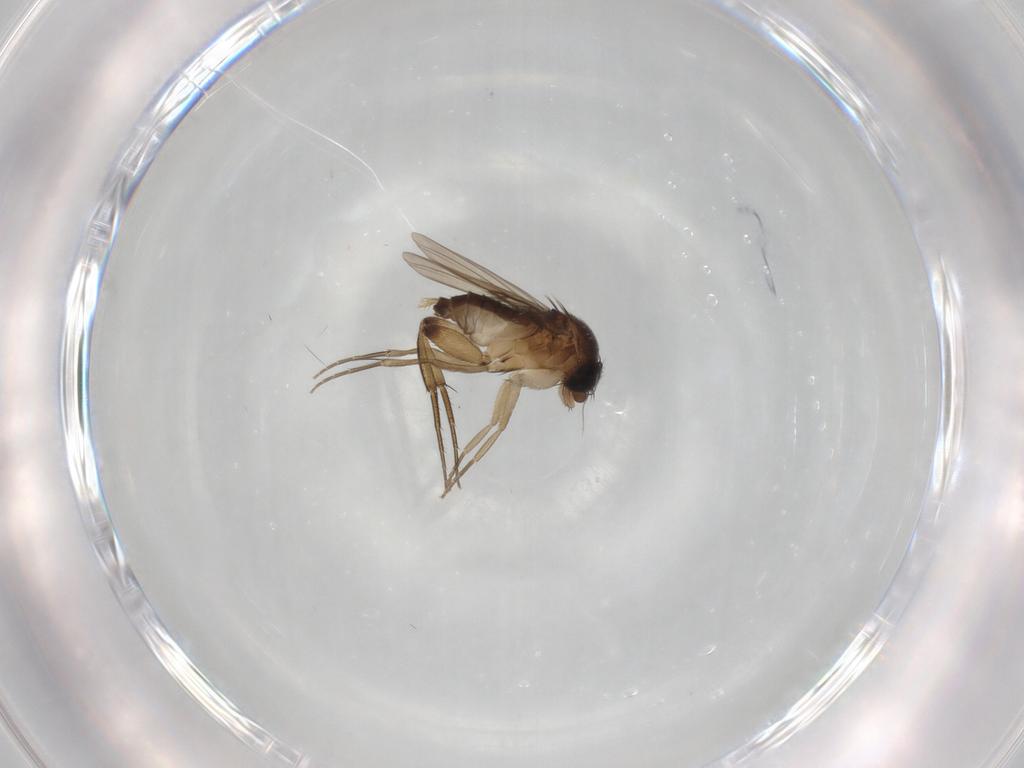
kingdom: Animalia
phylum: Arthropoda
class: Insecta
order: Diptera
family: Phoridae
